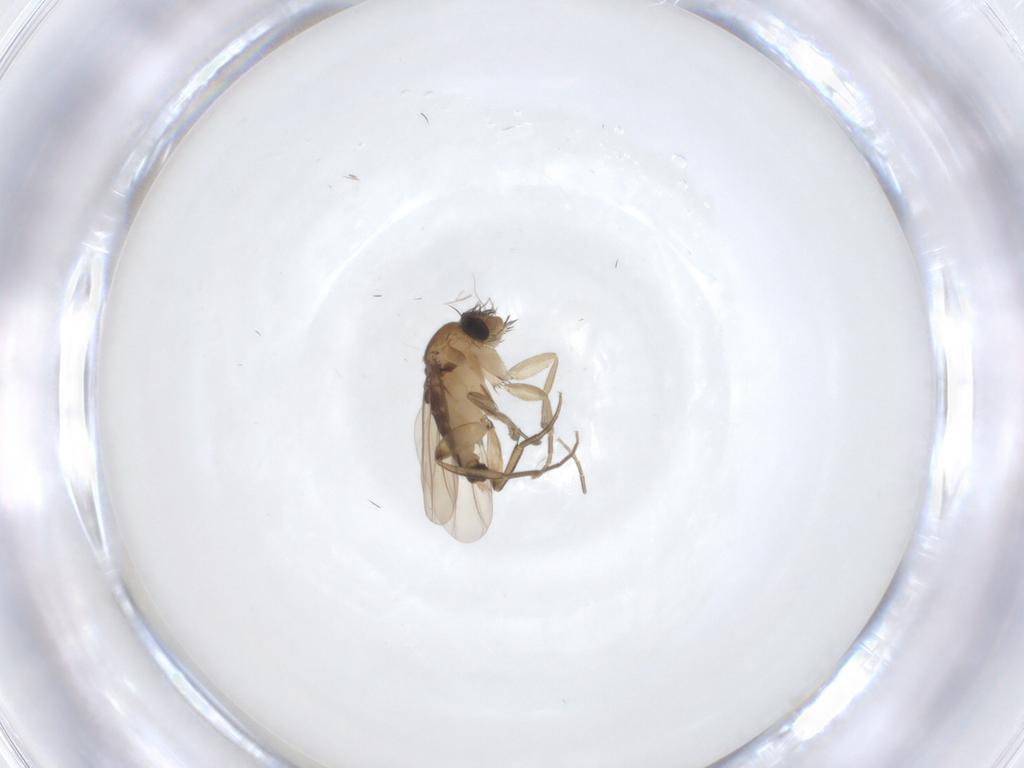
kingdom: Animalia
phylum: Arthropoda
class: Insecta
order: Diptera
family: Phoridae
